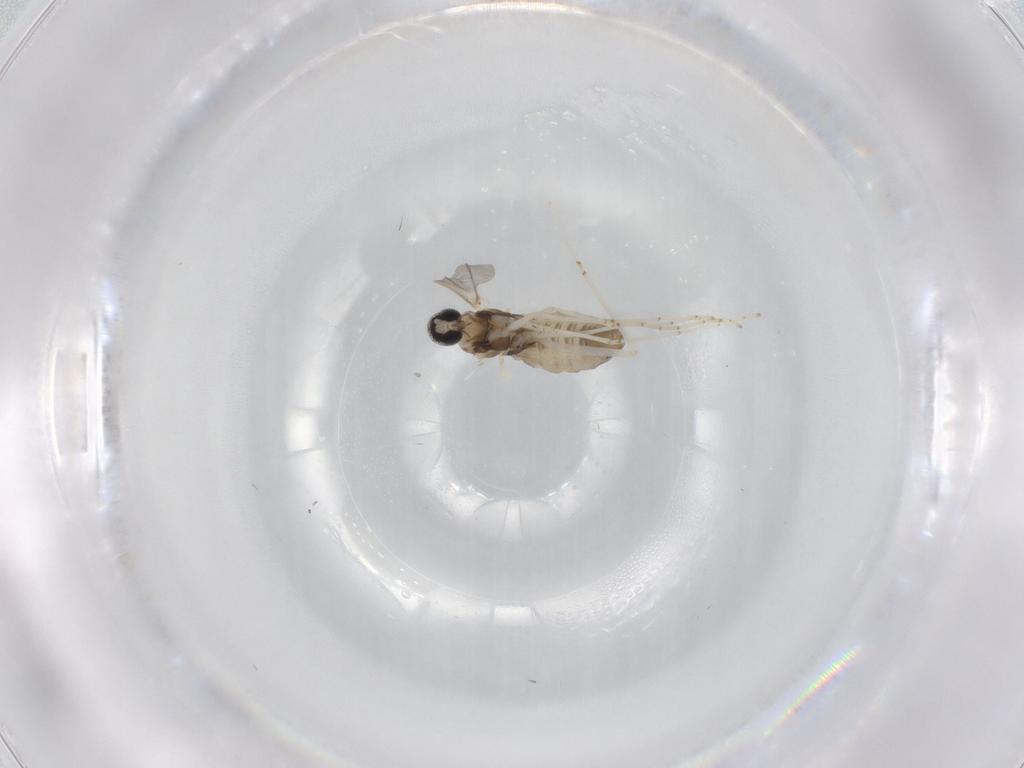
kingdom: Animalia
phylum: Arthropoda
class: Insecta
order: Diptera
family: Cecidomyiidae
